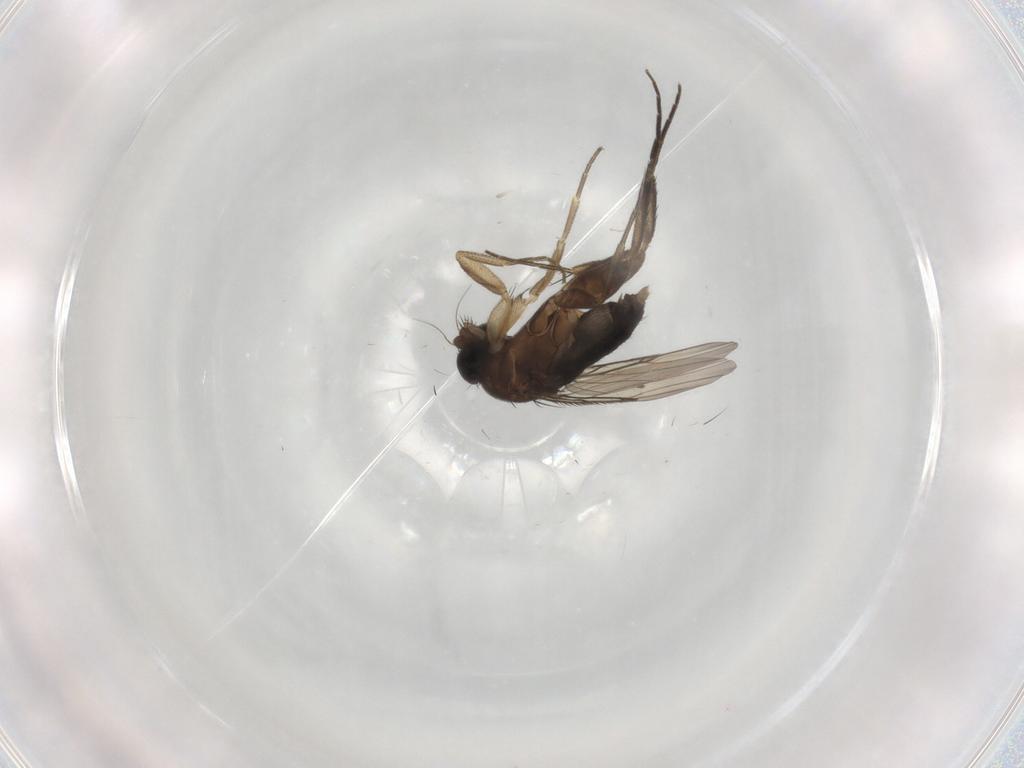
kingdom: Animalia
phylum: Arthropoda
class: Insecta
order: Diptera
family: Phoridae
